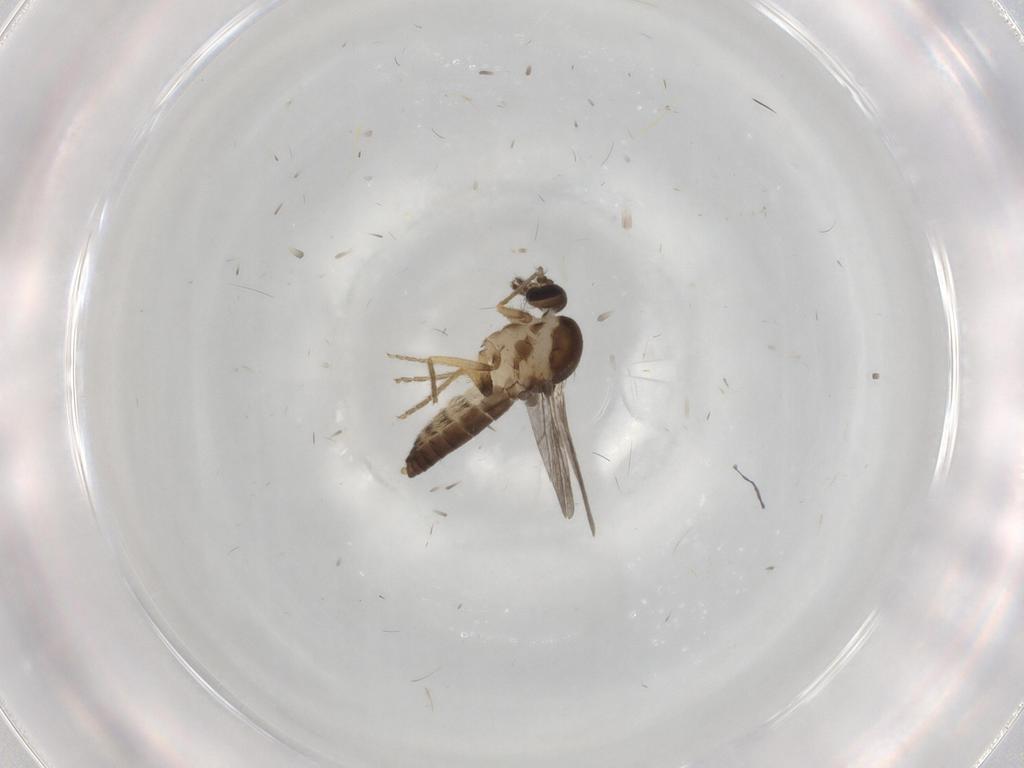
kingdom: Animalia
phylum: Arthropoda
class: Insecta
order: Diptera
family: Ceratopogonidae
